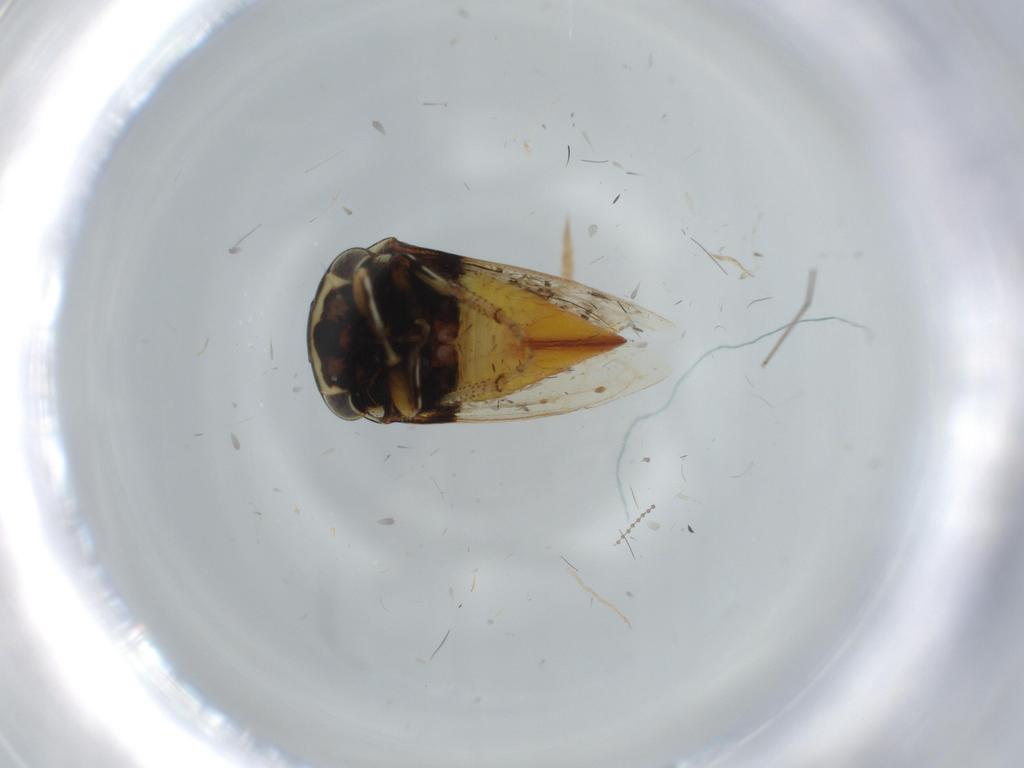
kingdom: Animalia
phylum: Arthropoda
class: Insecta
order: Hemiptera
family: Membracidae
